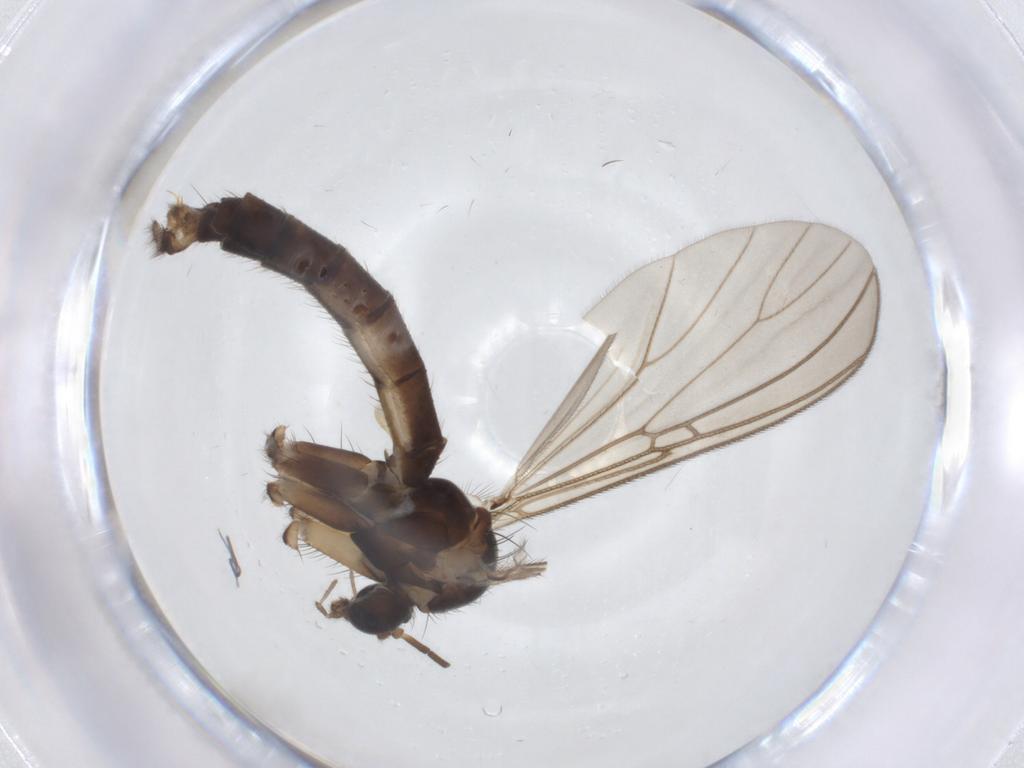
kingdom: Animalia
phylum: Arthropoda
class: Insecta
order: Diptera
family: Mycetophilidae
